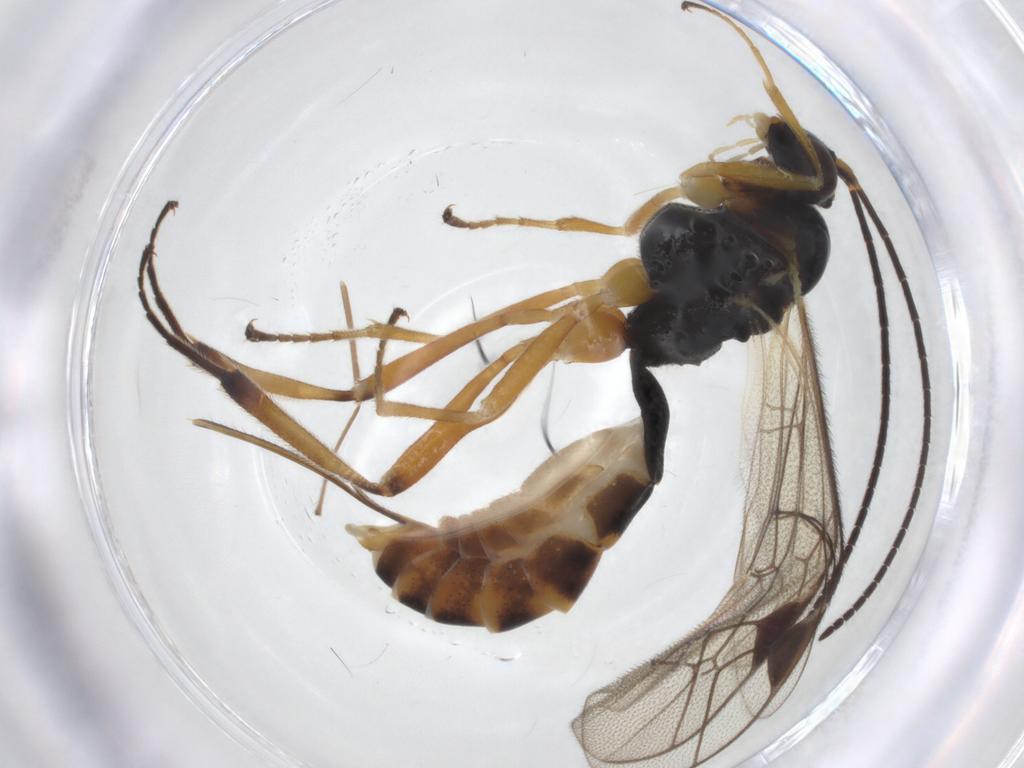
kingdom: Animalia
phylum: Arthropoda
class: Insecta
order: Hymenoptera
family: Ichneumonidae
